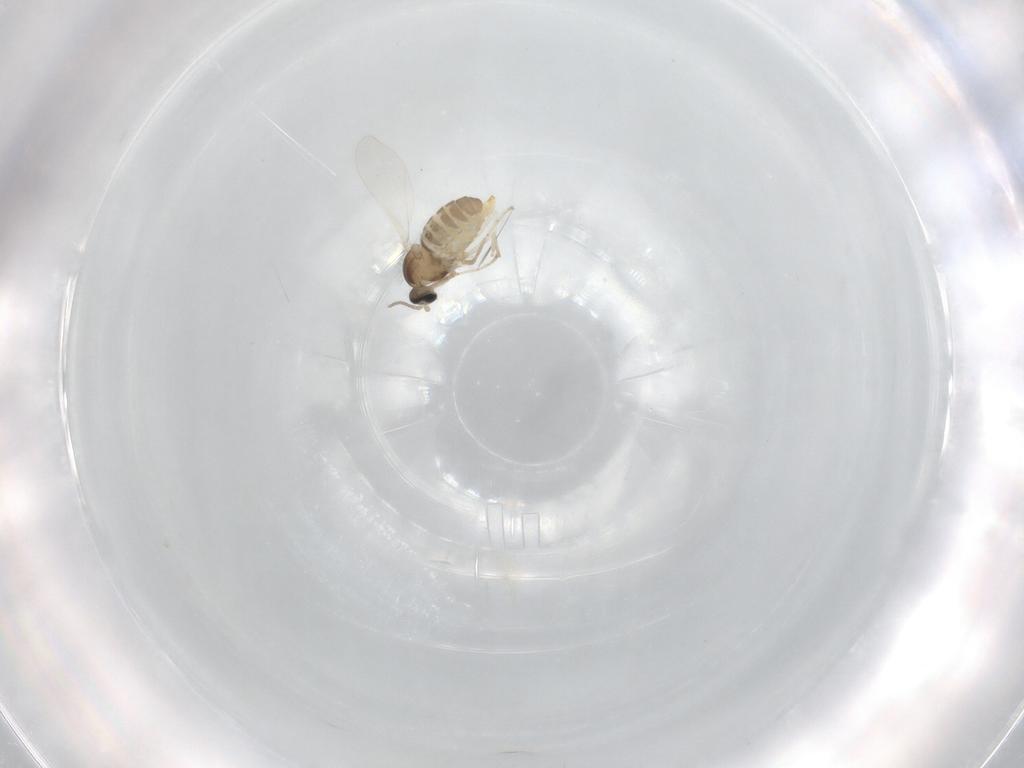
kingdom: Animalia
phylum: Arthropoda
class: Insecta
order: Diptera
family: Cecidomyiidae
